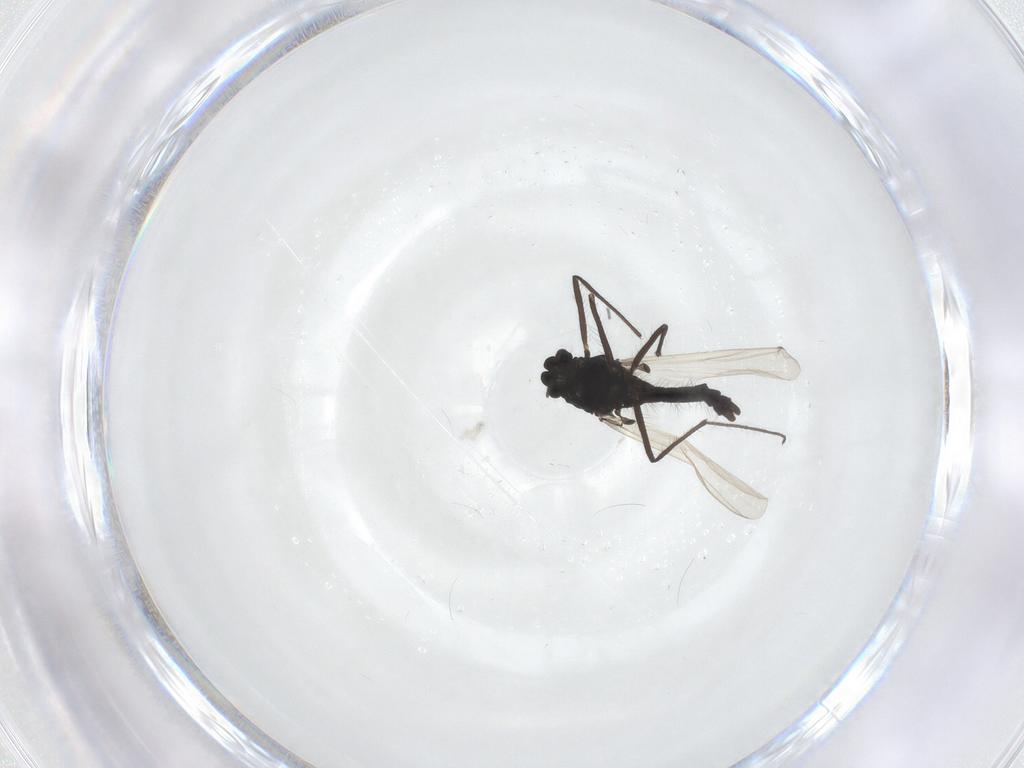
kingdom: Animalia
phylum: Arthropoda
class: Insecta
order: Diptera
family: Chironomidae
